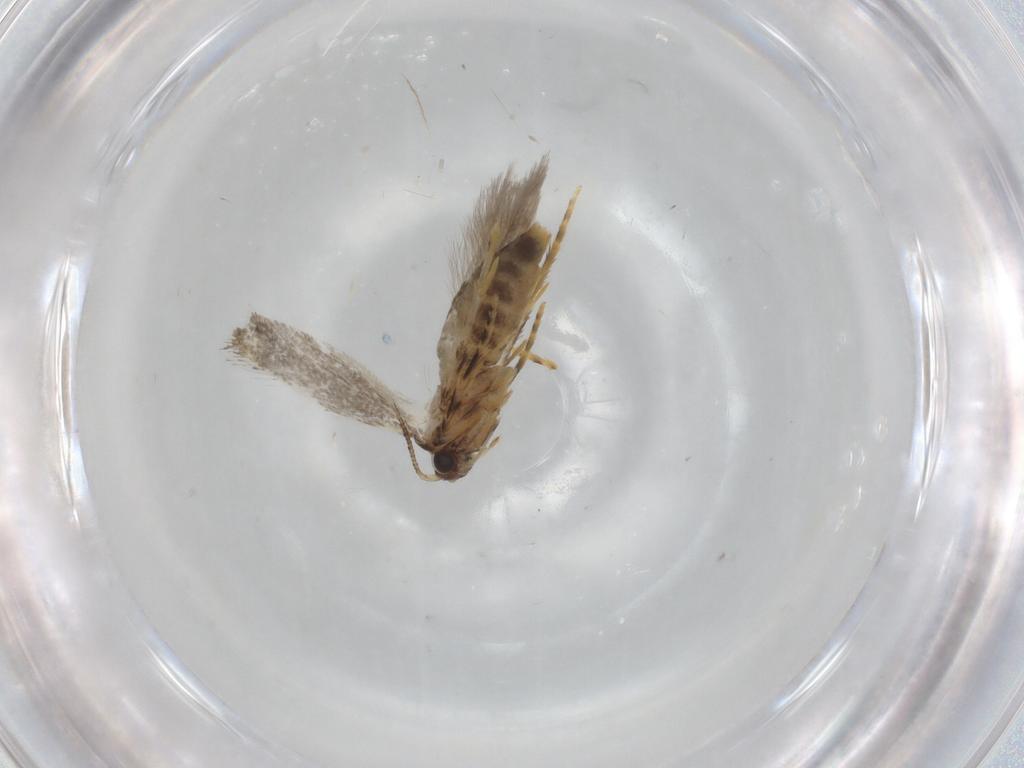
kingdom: Animalia
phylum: Arthropoda
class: Insecta
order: Lepidoptera
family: Tineidae
